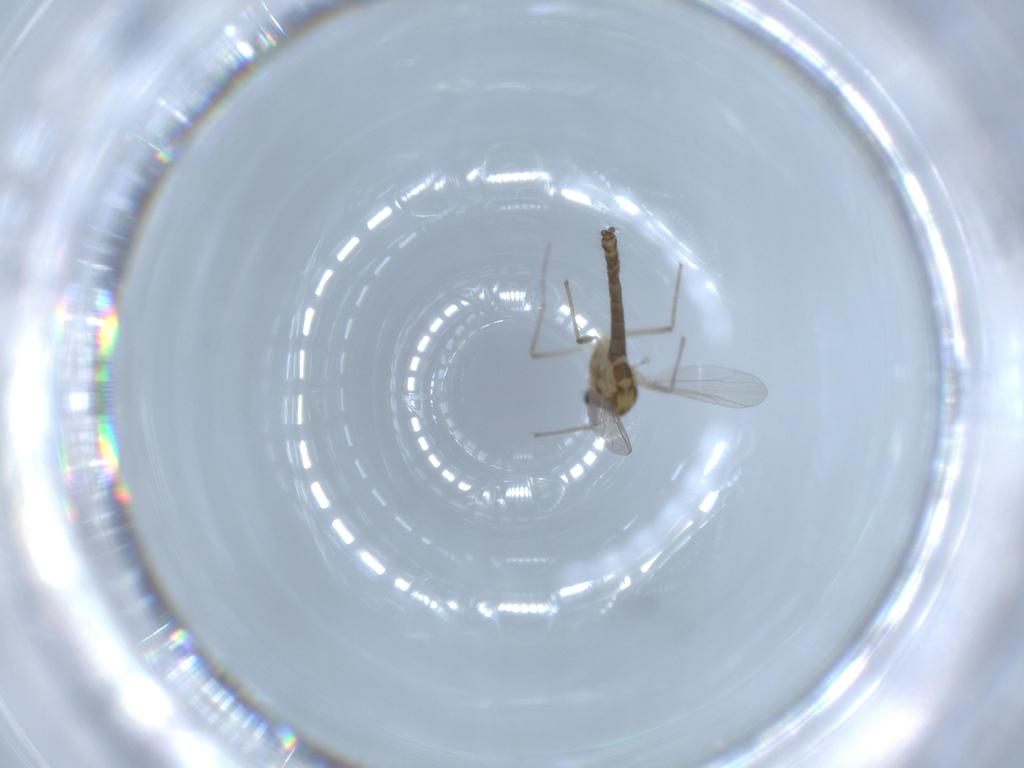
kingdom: Animalia
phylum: Arthropoda
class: Insecta
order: Diptera
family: Chironomidae
